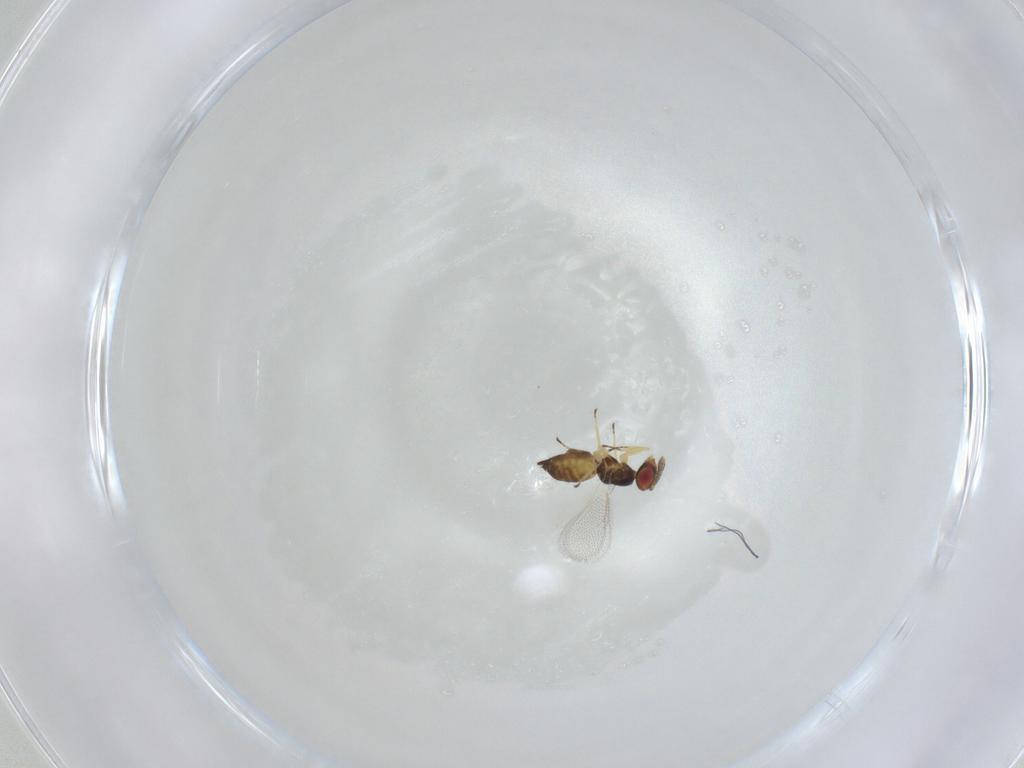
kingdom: Animalia
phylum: Arthropoda
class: Insecta
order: Hymenoptera
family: Eulophidae
